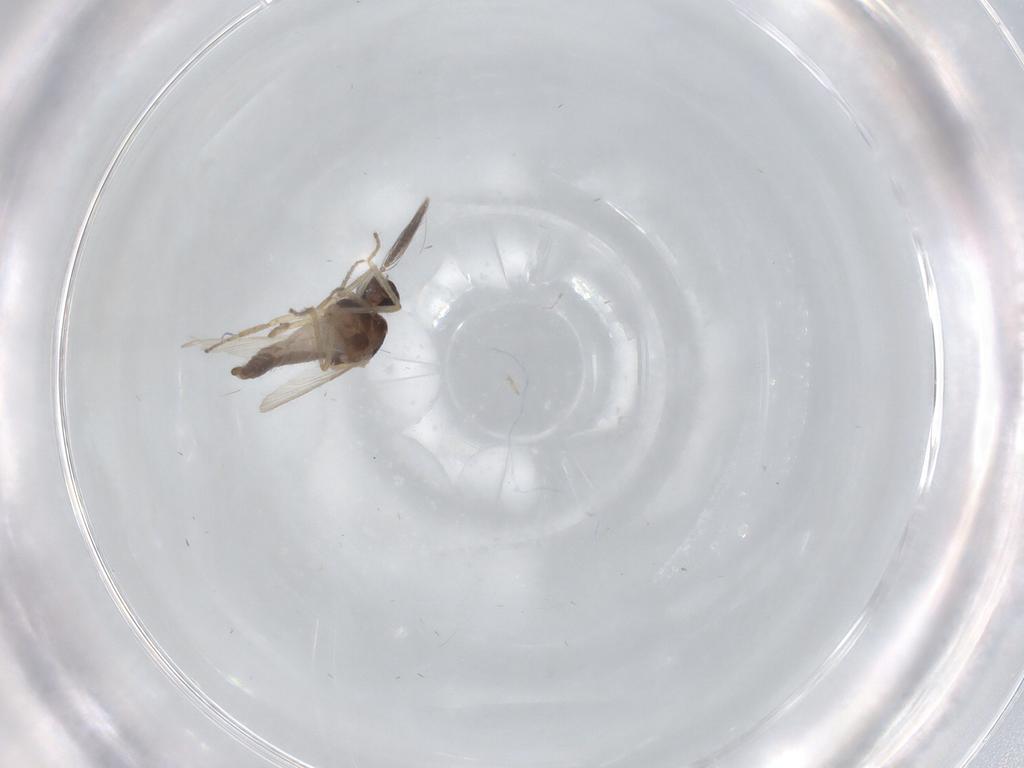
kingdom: Animalia
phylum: Arthropoda
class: Insecta
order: Diptera
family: Ceratopogonidae
